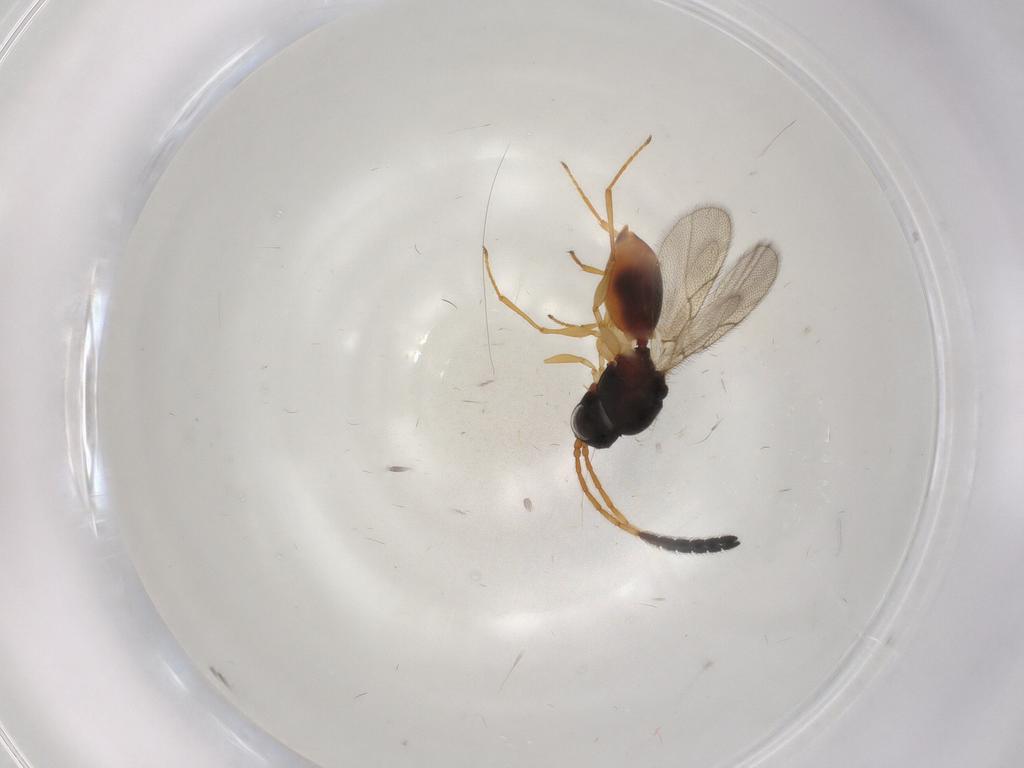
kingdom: Animalia
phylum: Arthropoda
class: Insecta
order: Hymenoptera
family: Figitidae
